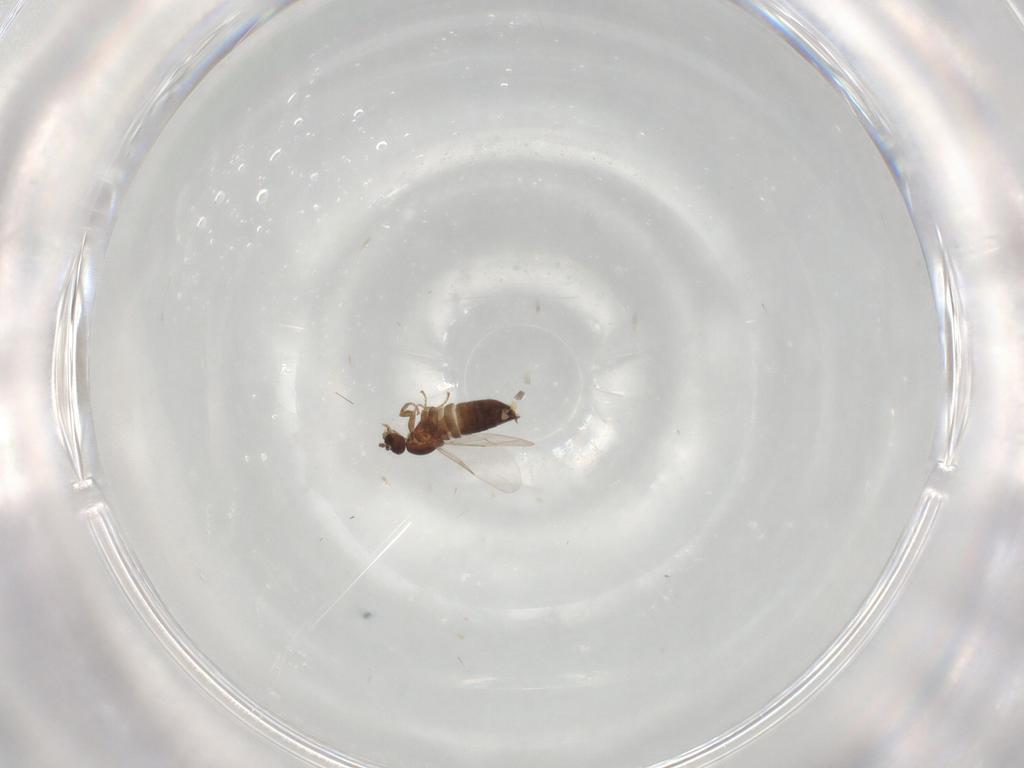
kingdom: Animalia
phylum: Arthropoda
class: Insecta
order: Diptera
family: Scatopsidae
